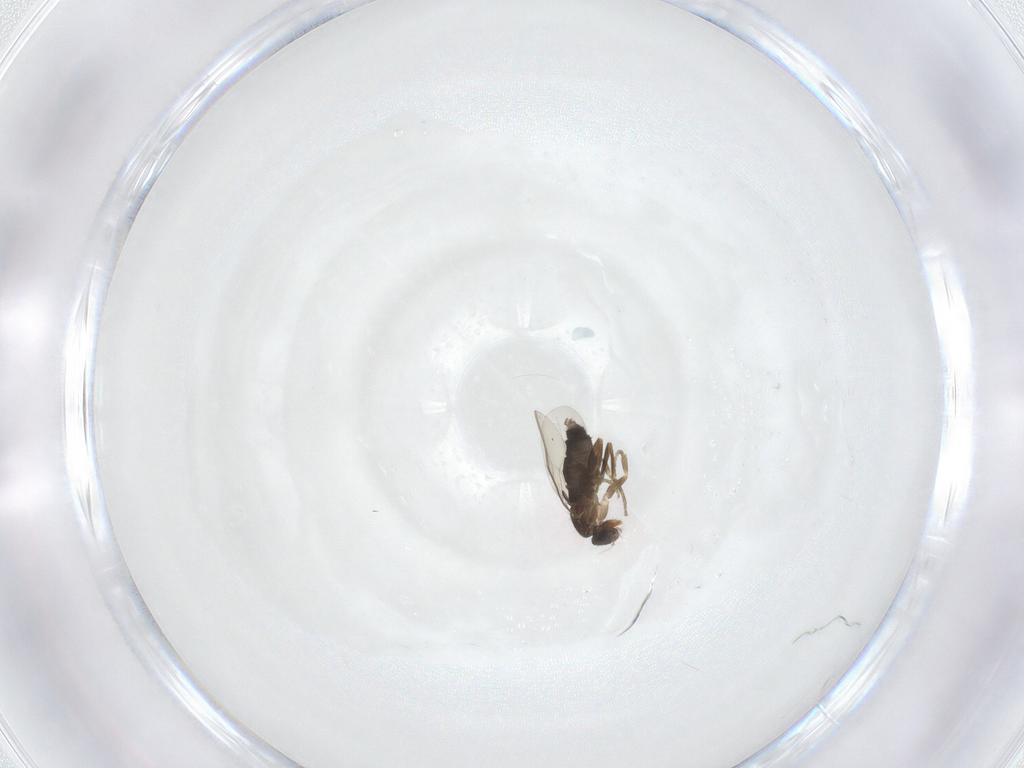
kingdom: Animalia
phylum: Arthropoda
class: Insecta
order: Diptera
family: Phoridae
